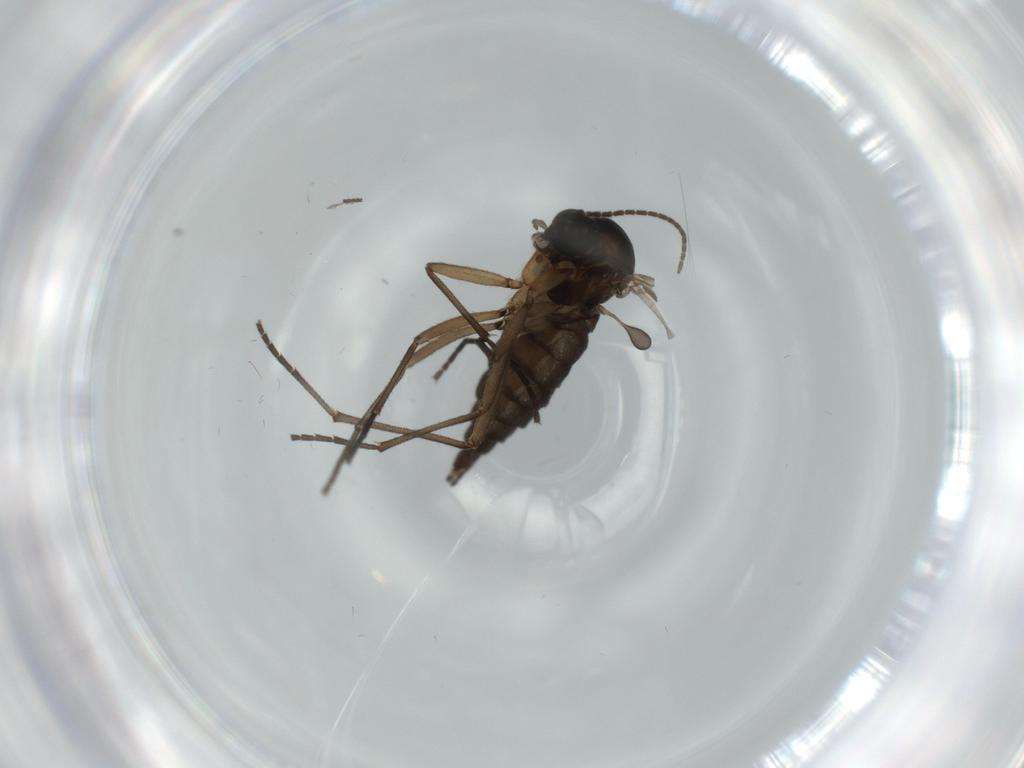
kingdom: Animalia
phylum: Arthropoda
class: Insecta
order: Diptera
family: Sciaridae
